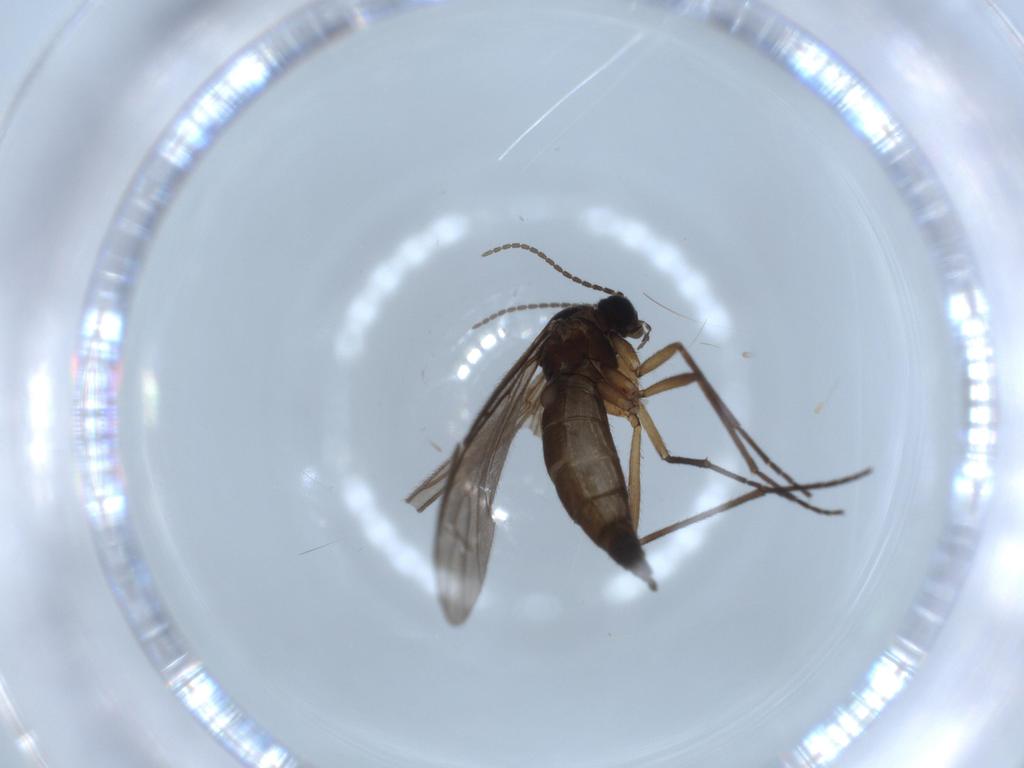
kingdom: Animalia
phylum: Arthropoda
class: Insecta
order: Diptera
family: Sciaridae
